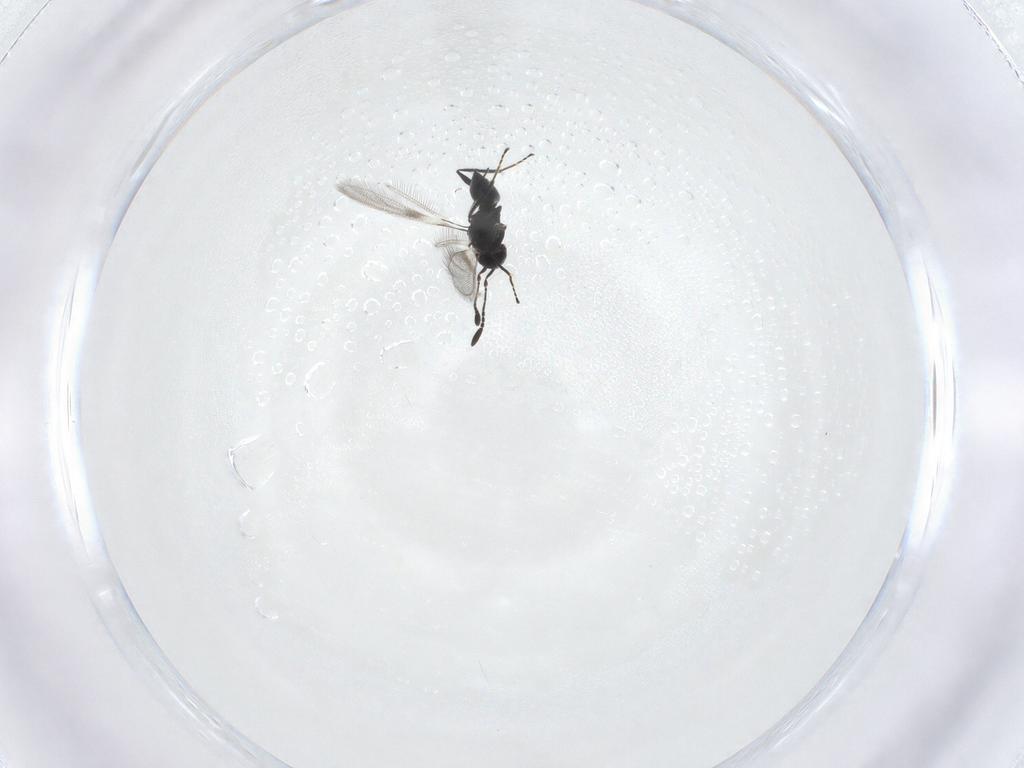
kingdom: Animalia
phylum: Arthropoda
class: Insecta
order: Hymenoptera
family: Mymaridae
